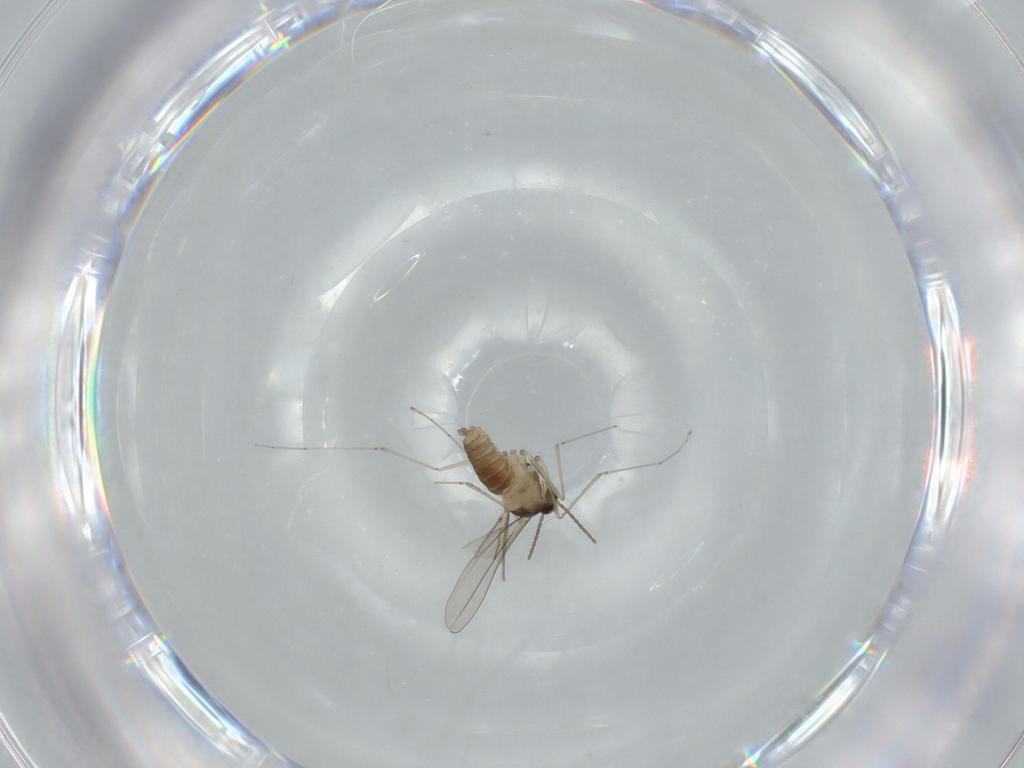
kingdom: Animalia
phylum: Arthropoda
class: Insecta
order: Diptera
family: Cecidomyiidae
